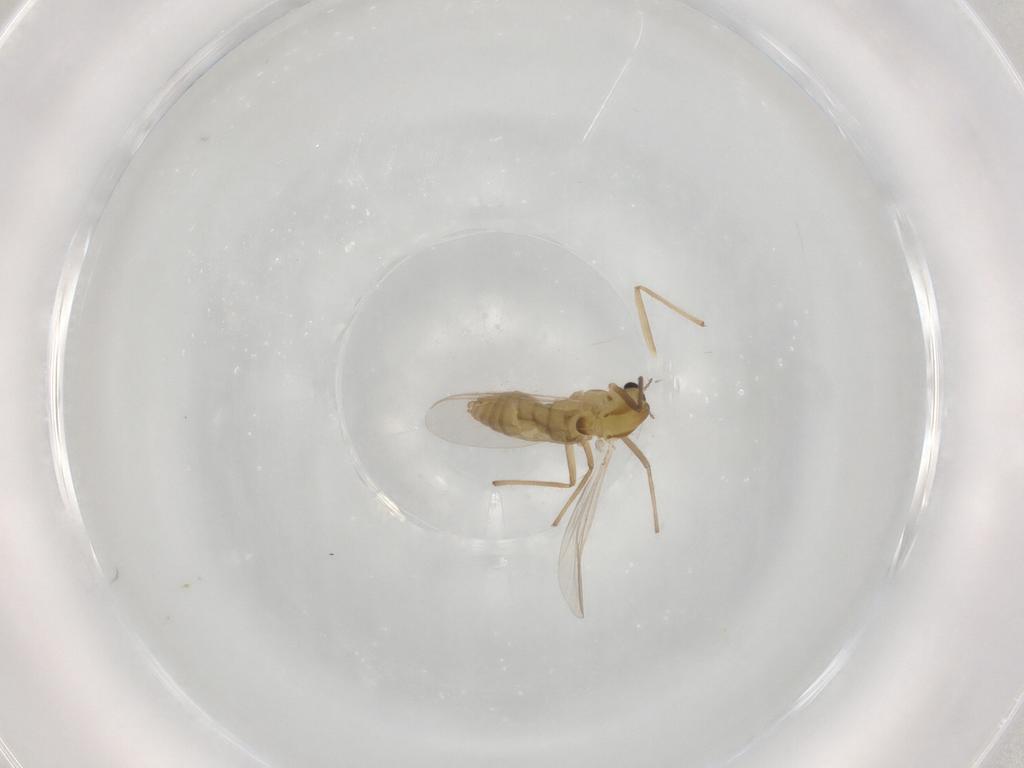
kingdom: Animalia
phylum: Arthropoda
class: Insecta
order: Diptera
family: Chironomidae
